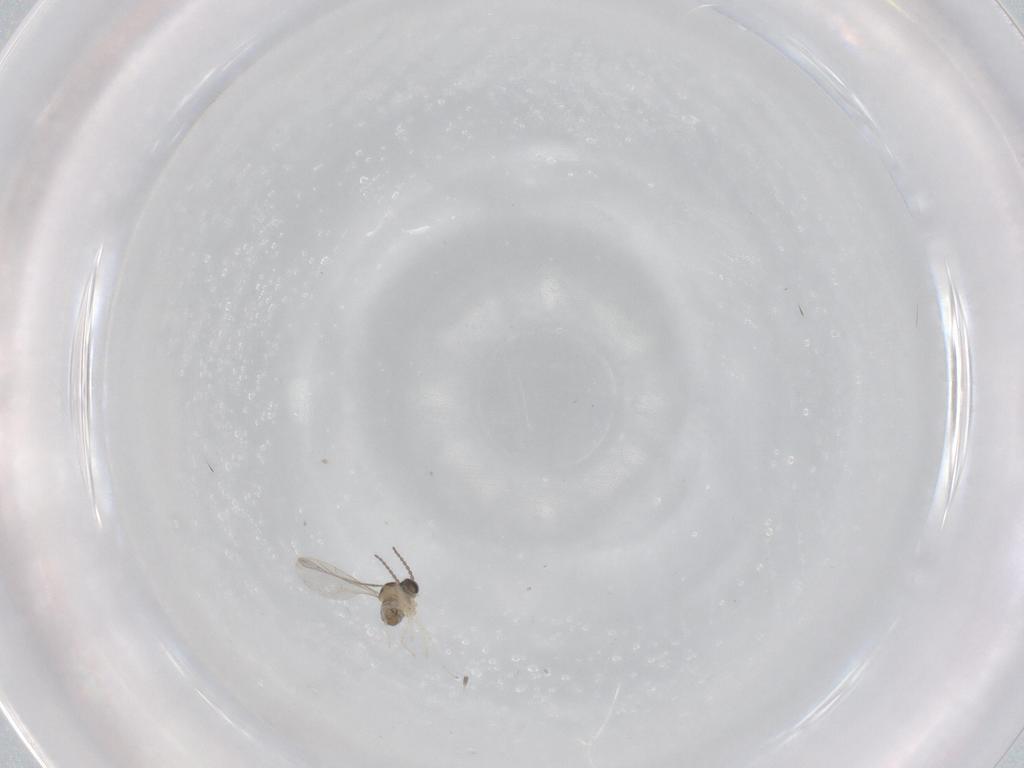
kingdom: Animalia
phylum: Arthropoda
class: Insecta
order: Diptera
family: Cecidomyiidae
